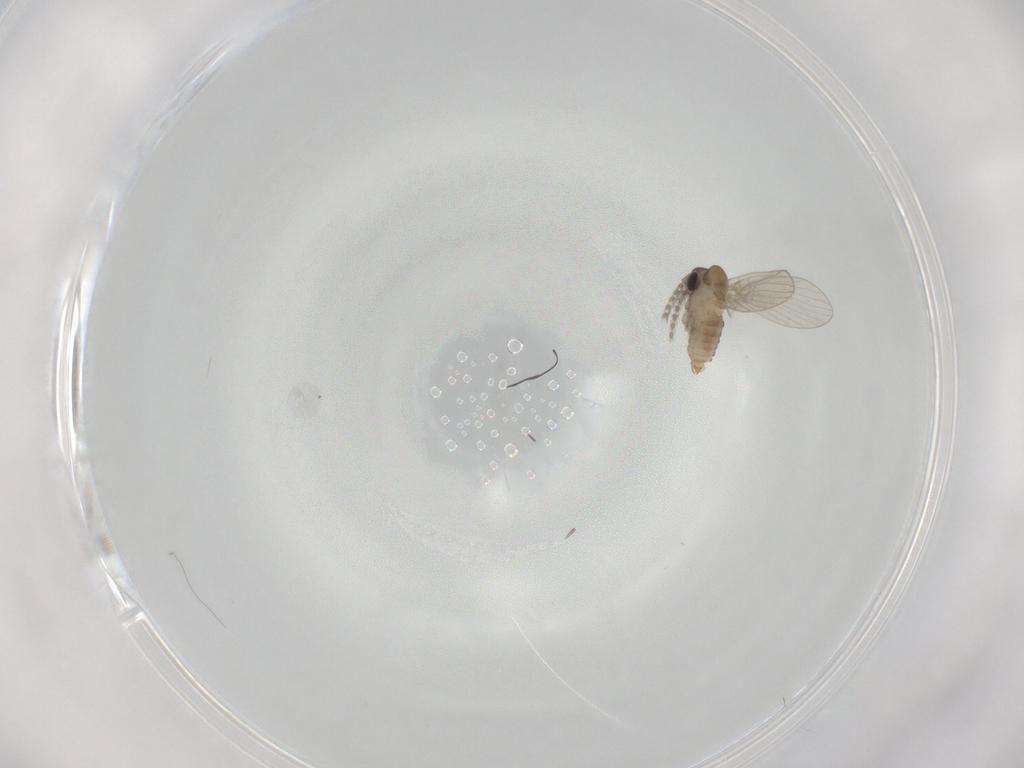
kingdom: Animalia
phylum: Arthropoda
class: Insecta
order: Diptera
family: Psychodidae
